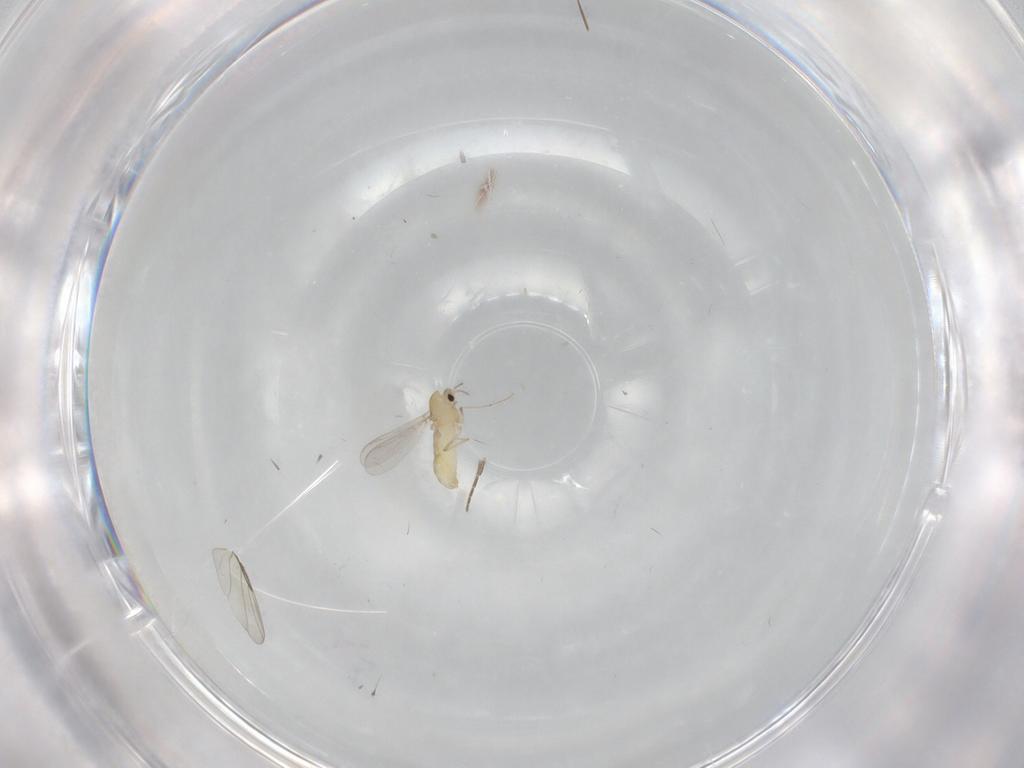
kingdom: Animalia
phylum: Arthropoda
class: Insecta
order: Diptera
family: Chironomidae
